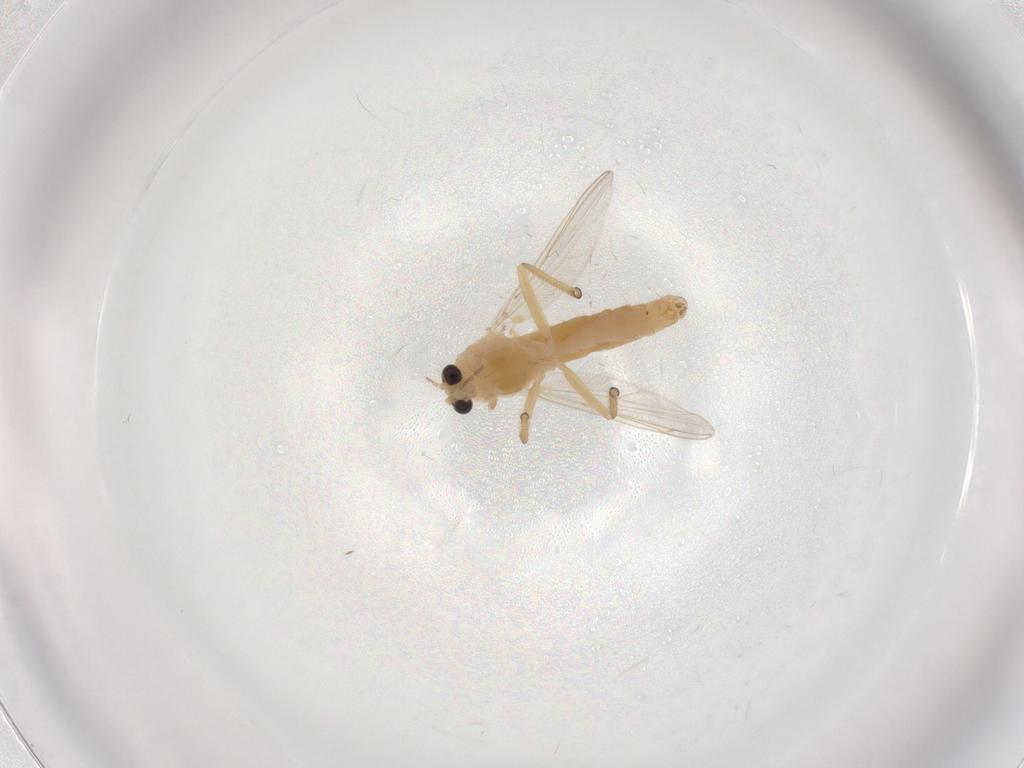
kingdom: Animalia
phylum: Arthropoda
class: Insecta
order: Diptera
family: Chironomidae
